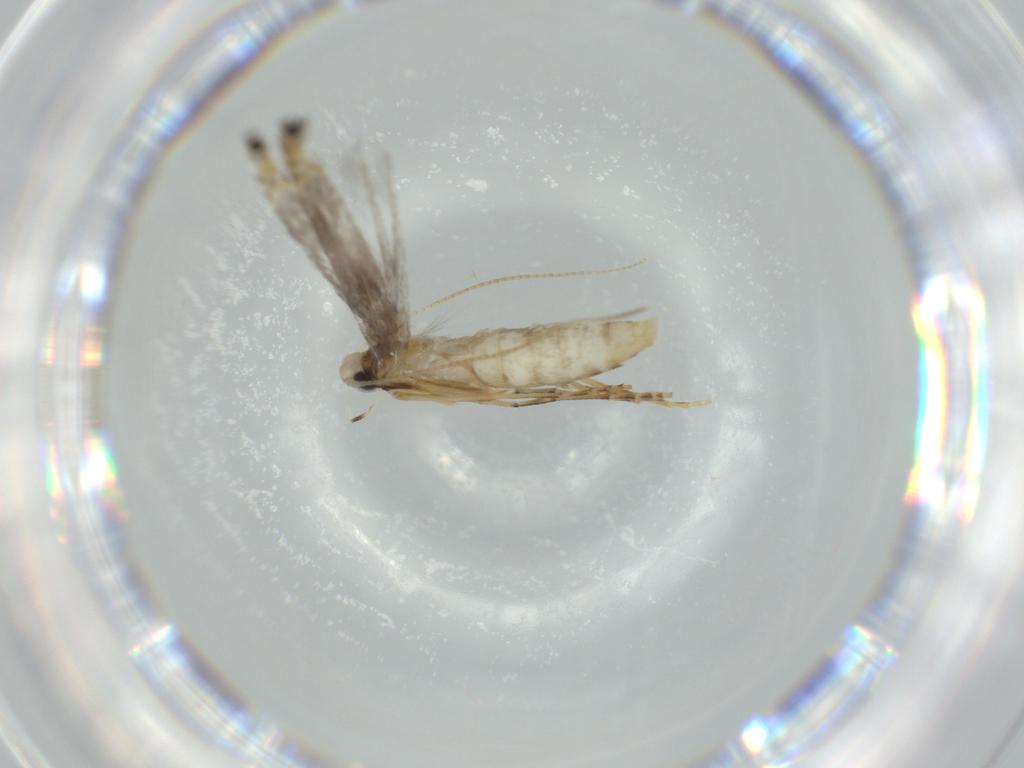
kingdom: Animalia
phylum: Arthropoda
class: Insecta
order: Lepidoptera
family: Gracillariidae
